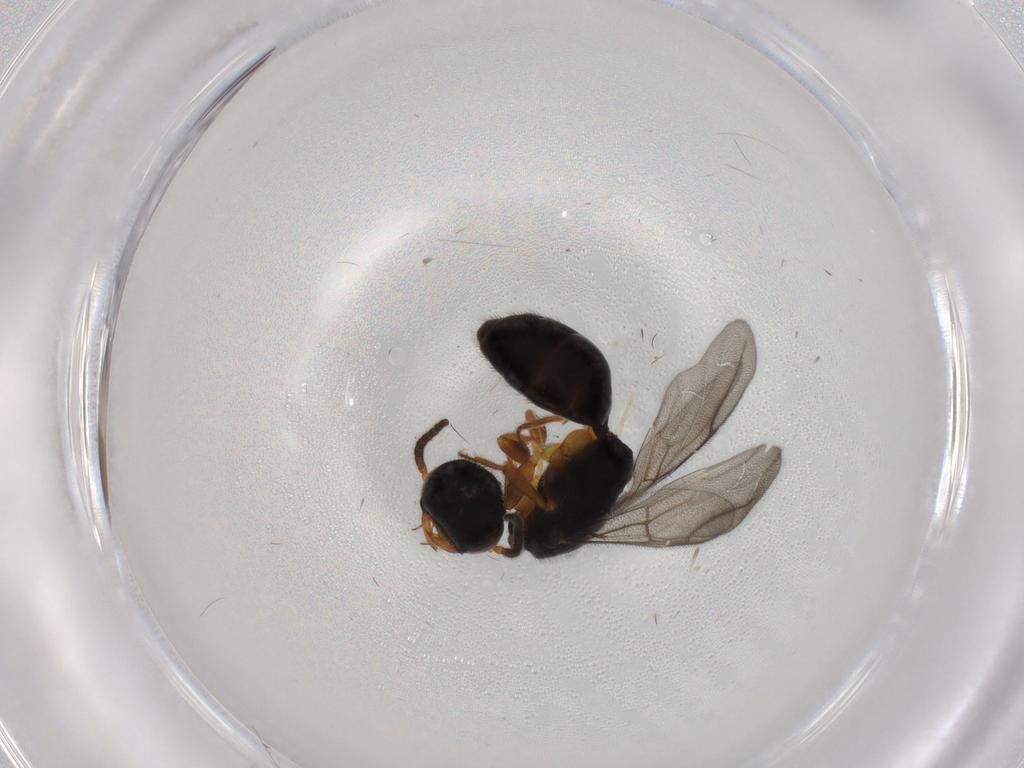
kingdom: Animalia
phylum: Arthropoda
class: Insecta
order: Hymenoptera
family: Bethylidae
